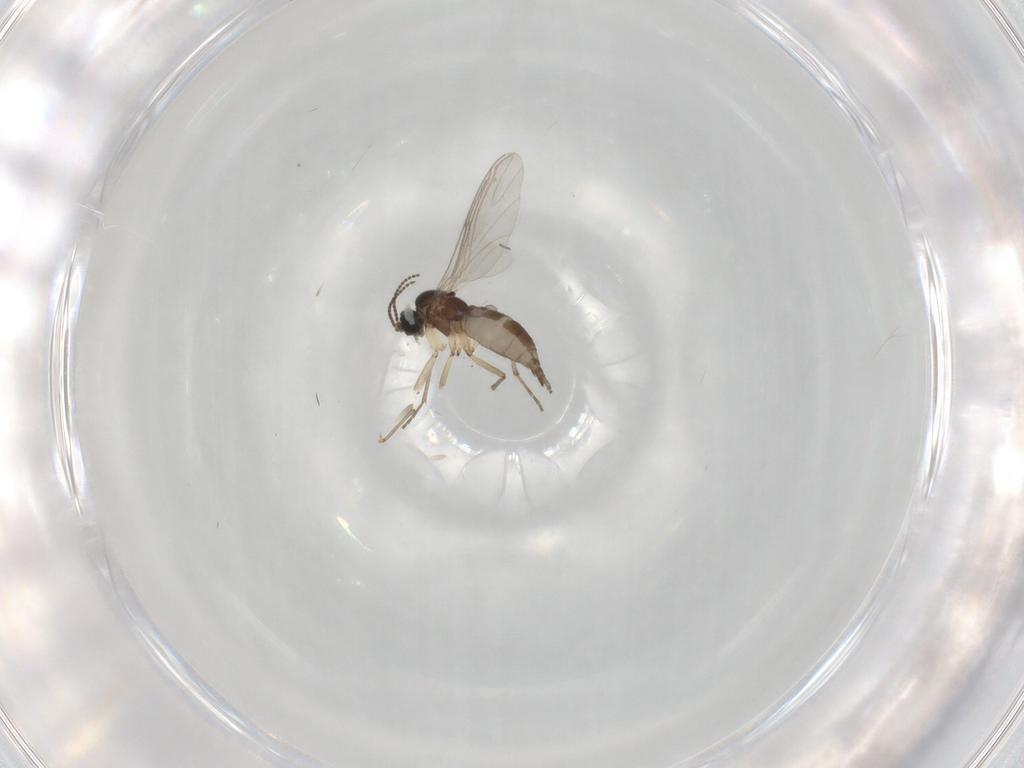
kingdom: Animalia
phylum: Arthropoda
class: Insecta
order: Diptera
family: Sciaridae
